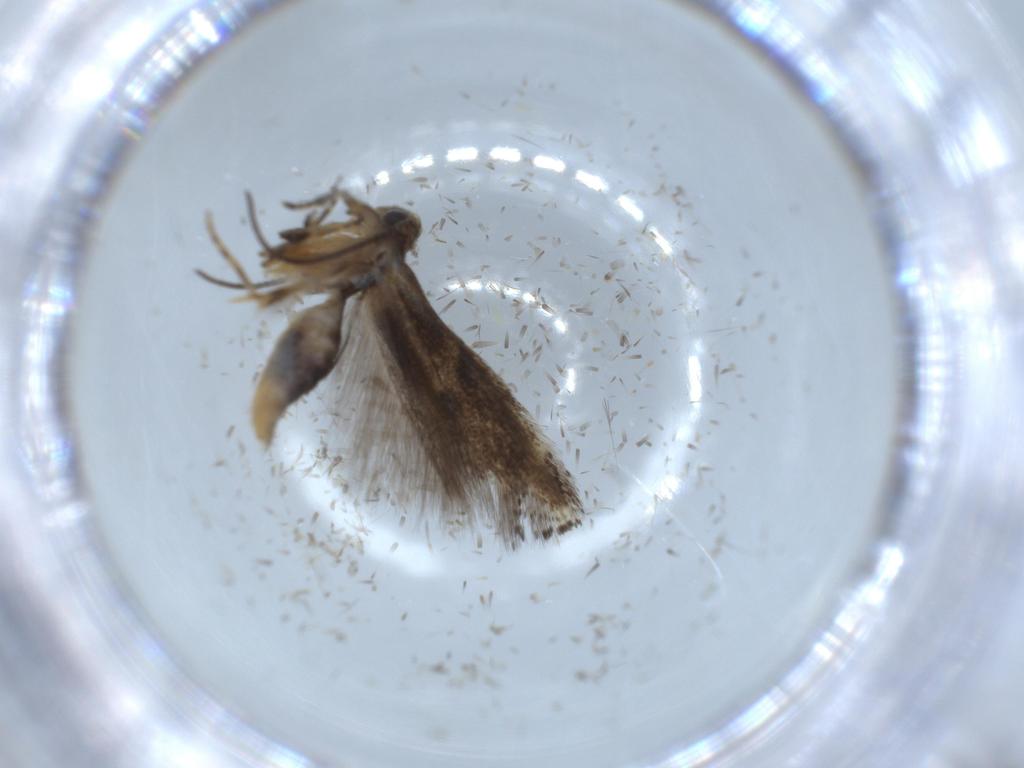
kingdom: Animalia
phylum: Arthropoda
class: Insecta
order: Lepidoptera
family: Elachistidae
